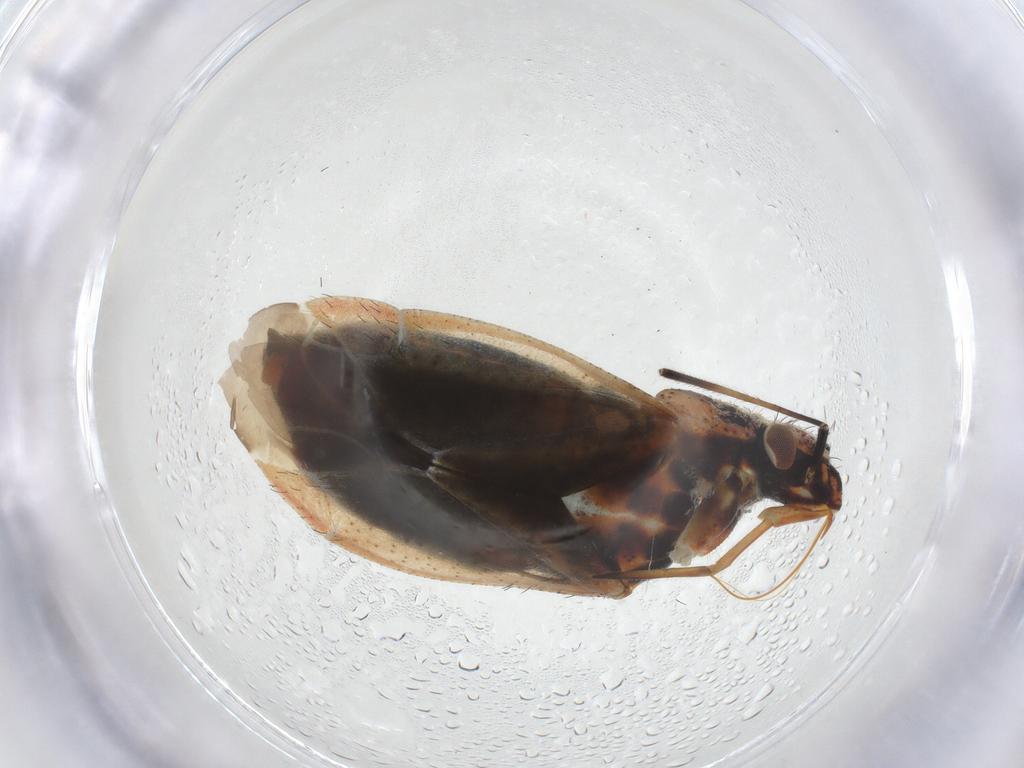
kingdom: Animalia
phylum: Arthropoda
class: Insecta
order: Hemiptera
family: Miridae
